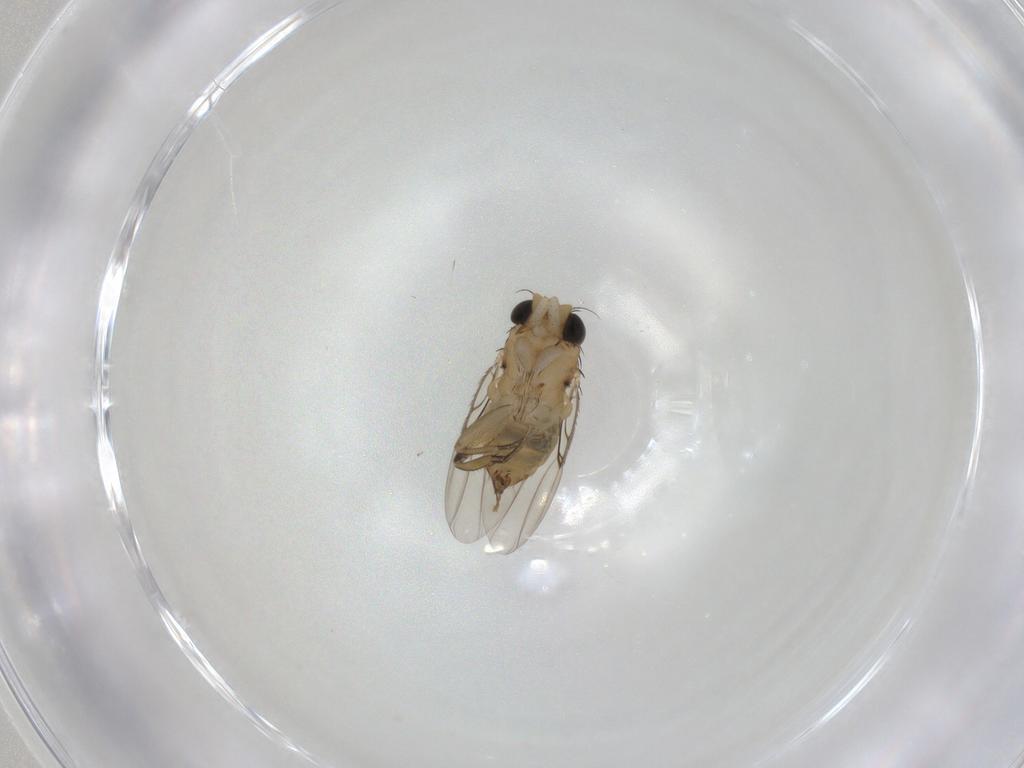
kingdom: Animalia
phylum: Arthropoda
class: Insecta
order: Diptera
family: Phoridae
